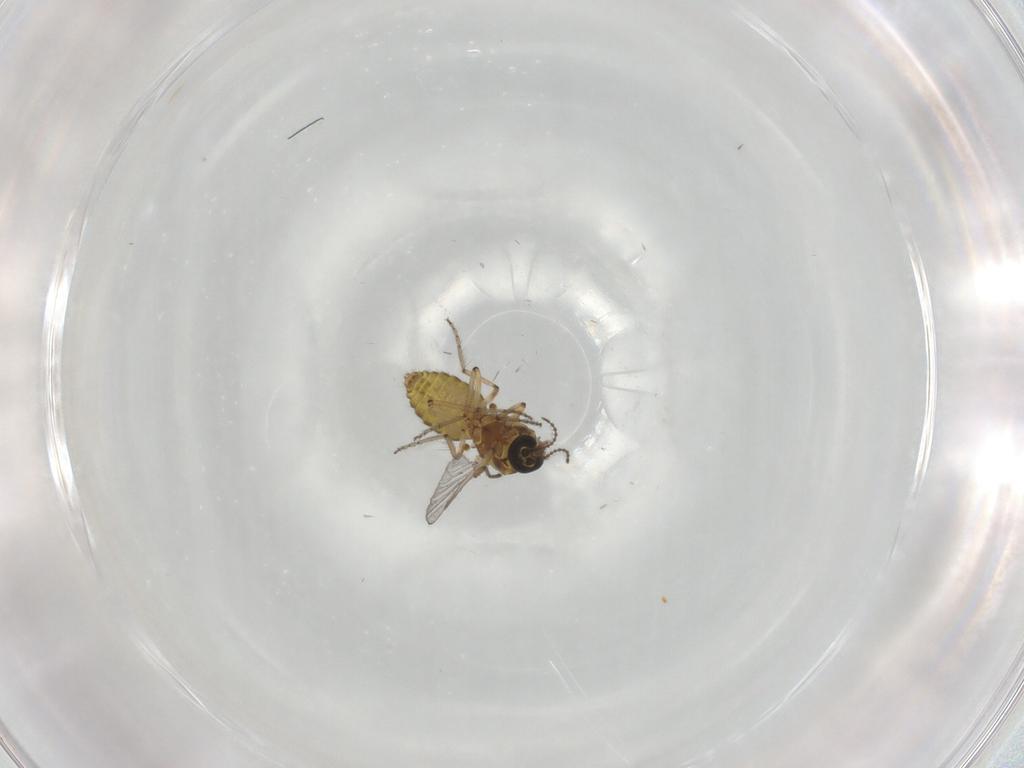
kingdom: Animalia
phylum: Arthropoda
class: Insecta
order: Diptera
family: Ceratopogonidae
